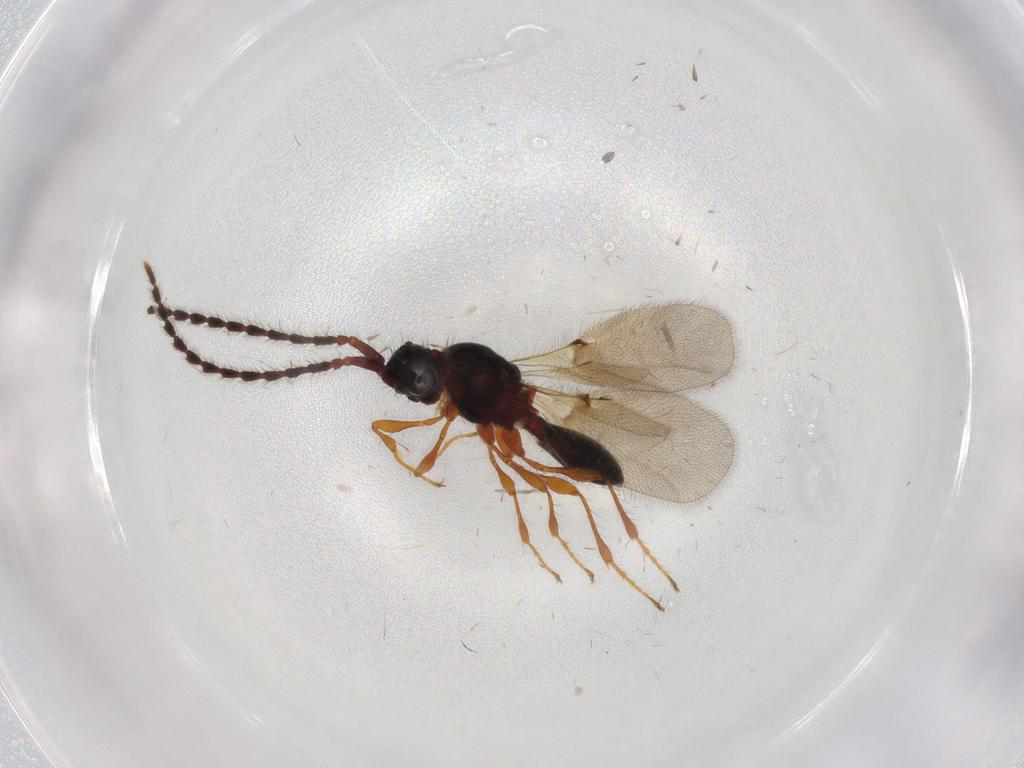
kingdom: Animalia
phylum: Arthropoda
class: Insecta
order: Hymenoptera
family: Diapriidae
